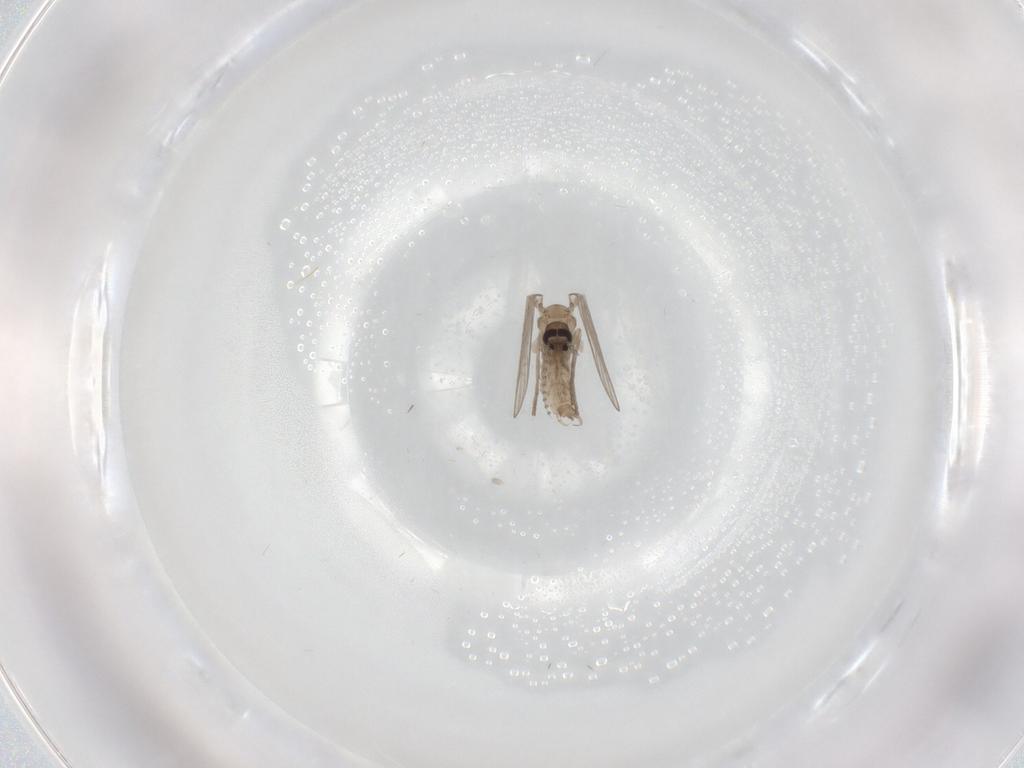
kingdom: Animalia
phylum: Arthropoda
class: Insecta
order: Diptera
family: Psychodidae
